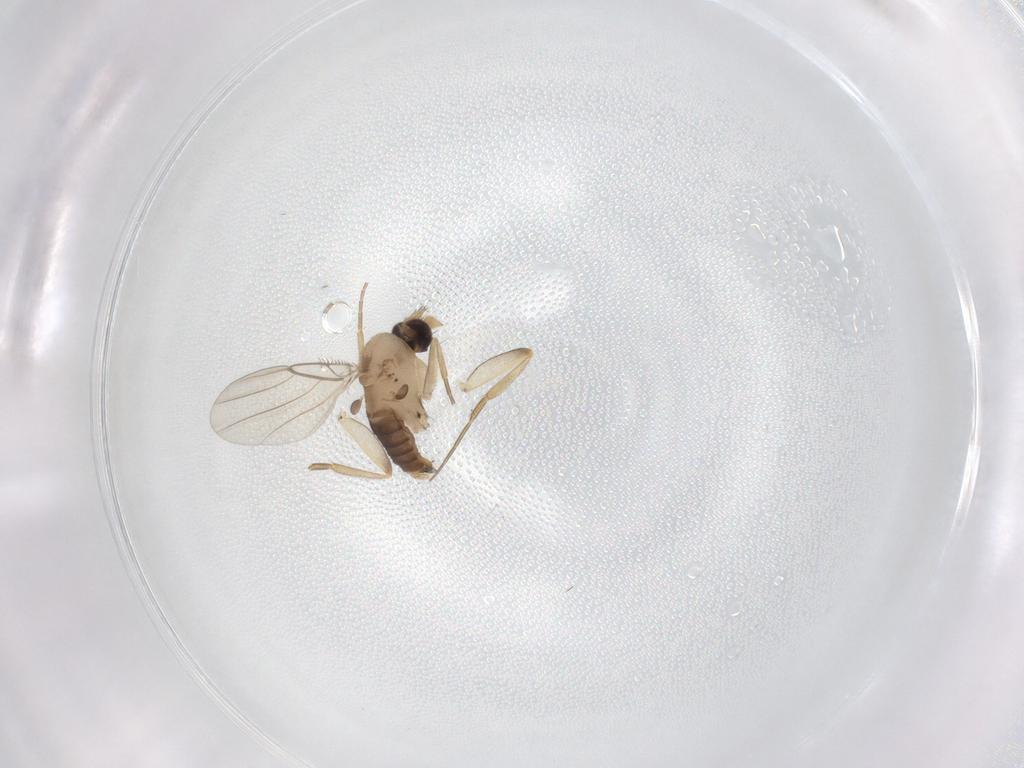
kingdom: Animalia
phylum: Arthropoda
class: Insecta
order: Diptera
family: Phoridae
